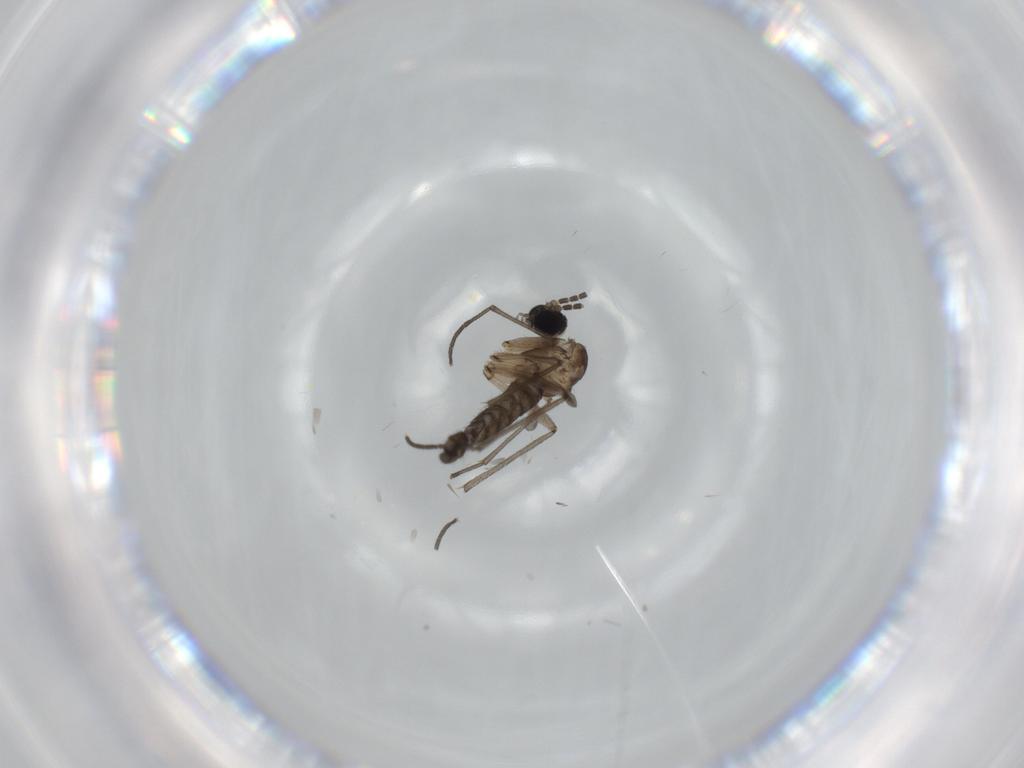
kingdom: Animalia
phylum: Arthropoda
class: Insecta
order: Diptera
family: Sciaridae
